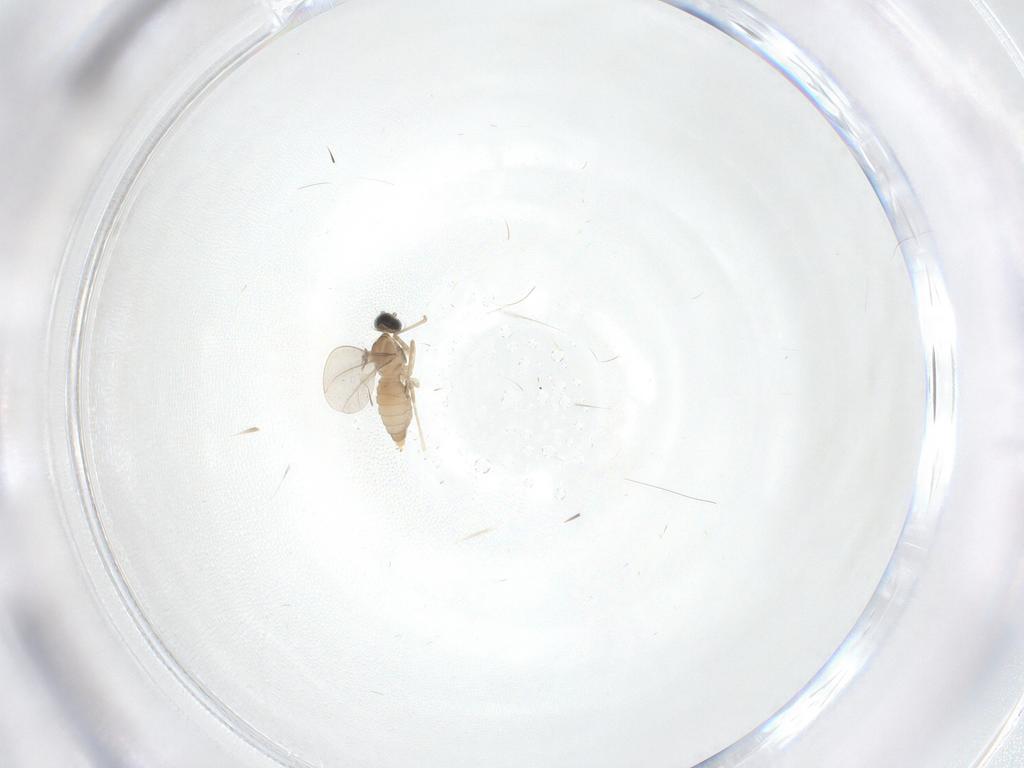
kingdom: Animalia
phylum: Arthropoda
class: Insecta
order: Diptera
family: Cecidomyiidae
